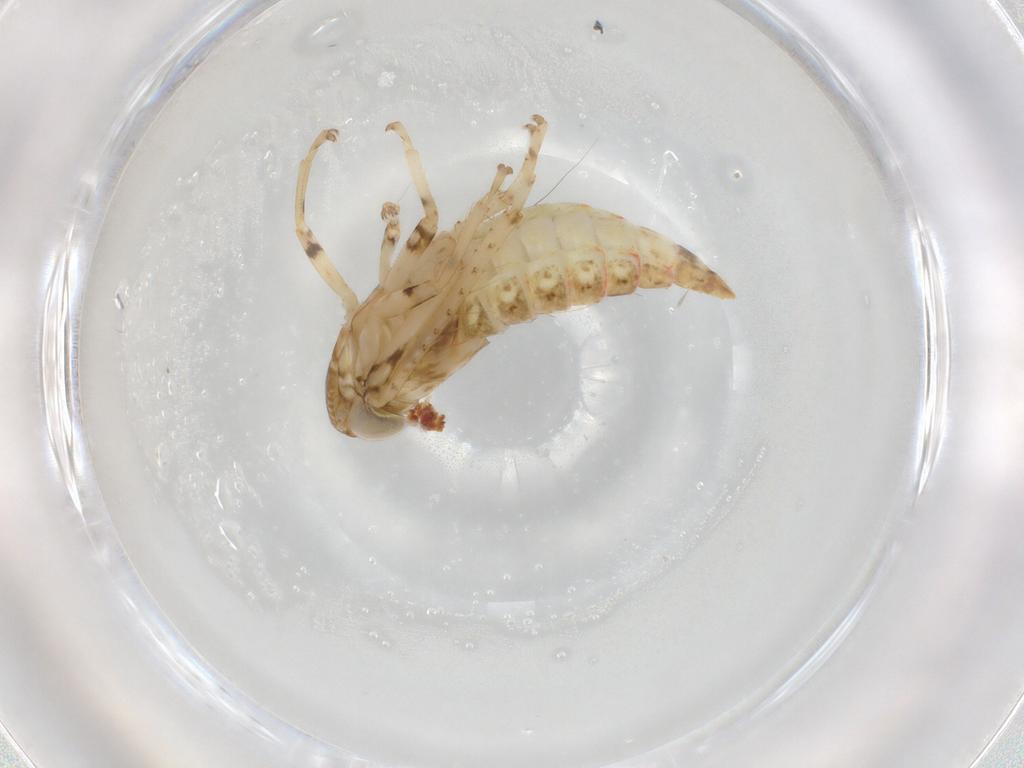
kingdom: Animalia
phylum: Arthropoda
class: Insecta
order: Hemiptera
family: Cicadellidae
